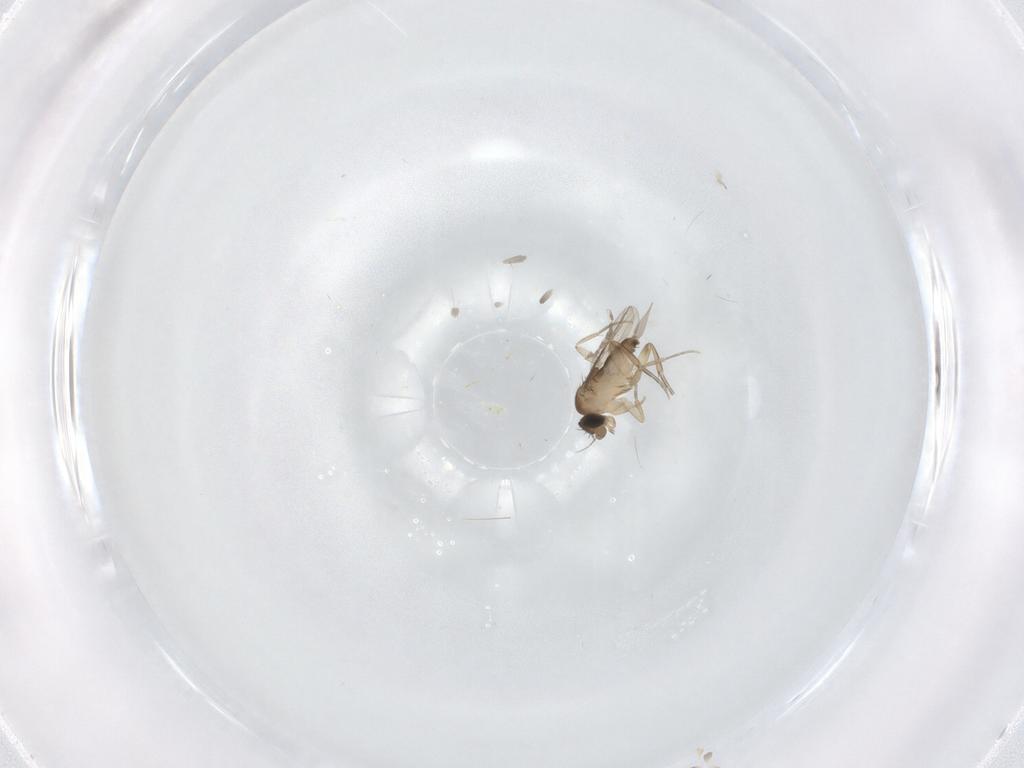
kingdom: Animalia
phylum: Arthropoda
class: Insecta
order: Diptera
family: Phoridae
